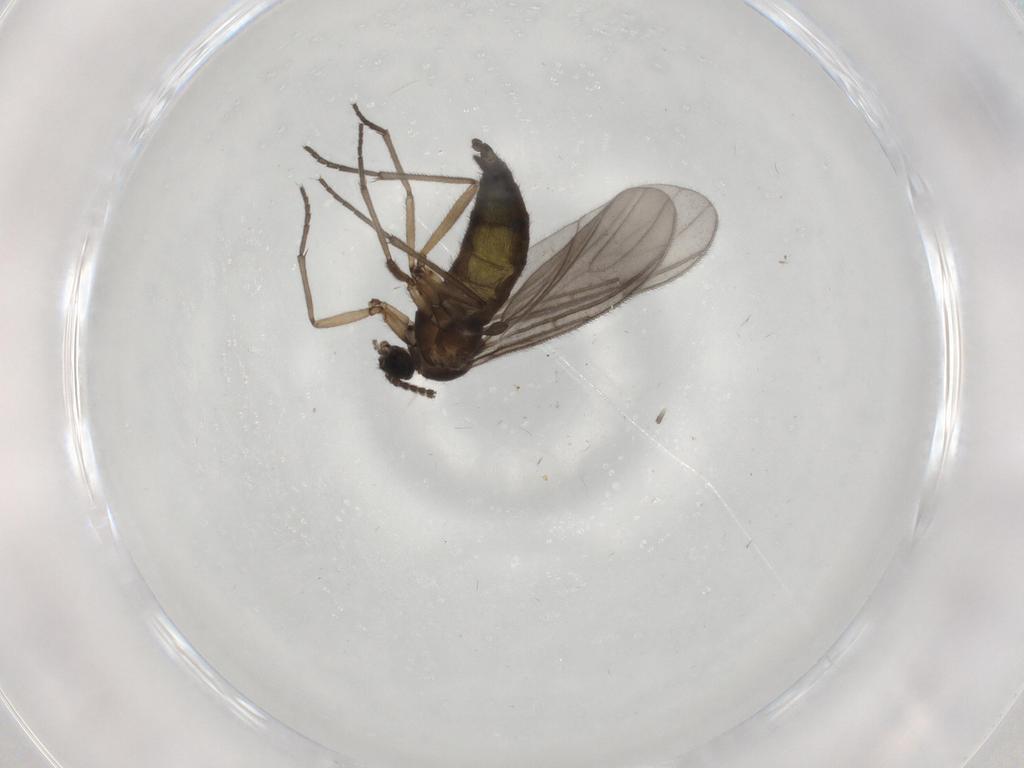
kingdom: Animalia
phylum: Arthropoda
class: Insecta
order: Diptera
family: Sciaridae
